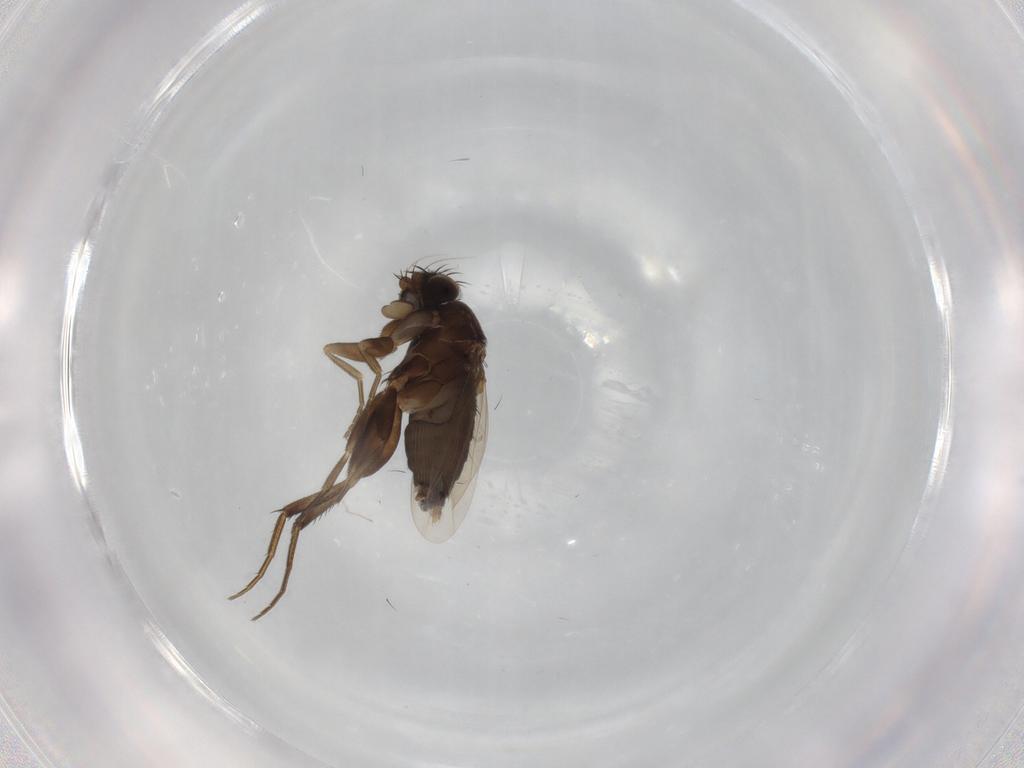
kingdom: Animalia
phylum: Arthropoda
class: Insecta
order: Diptera
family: Phoridae
